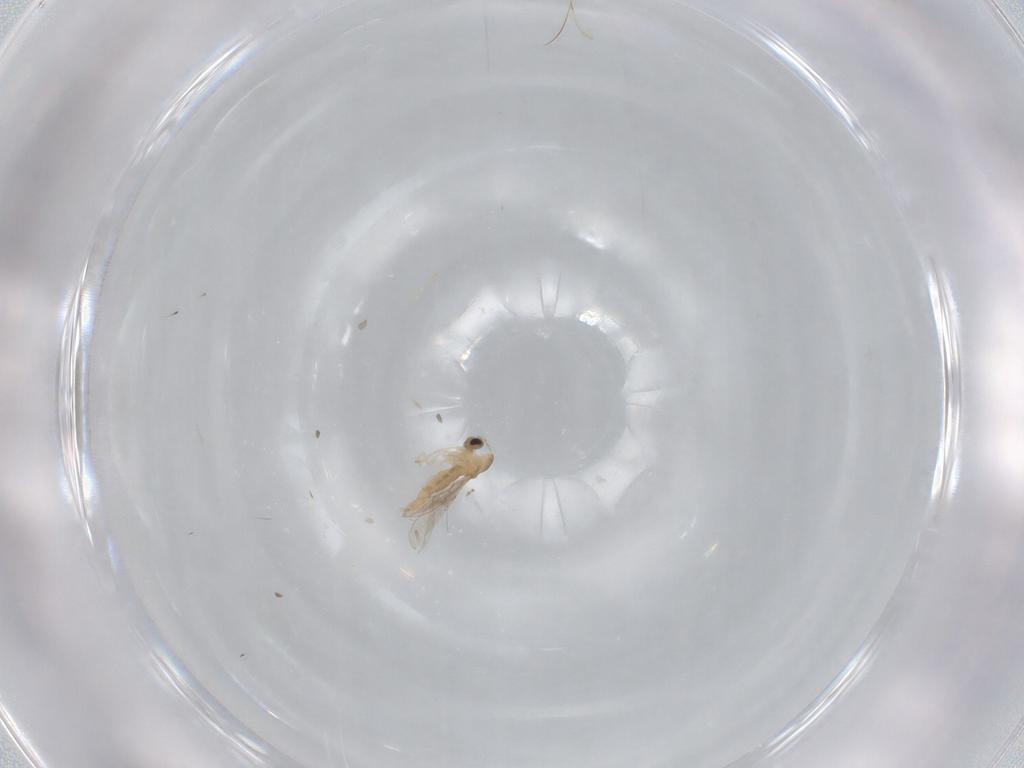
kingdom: Animalia
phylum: Arthropoda
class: Insecta
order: Diptera
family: Cecidomyiidae
